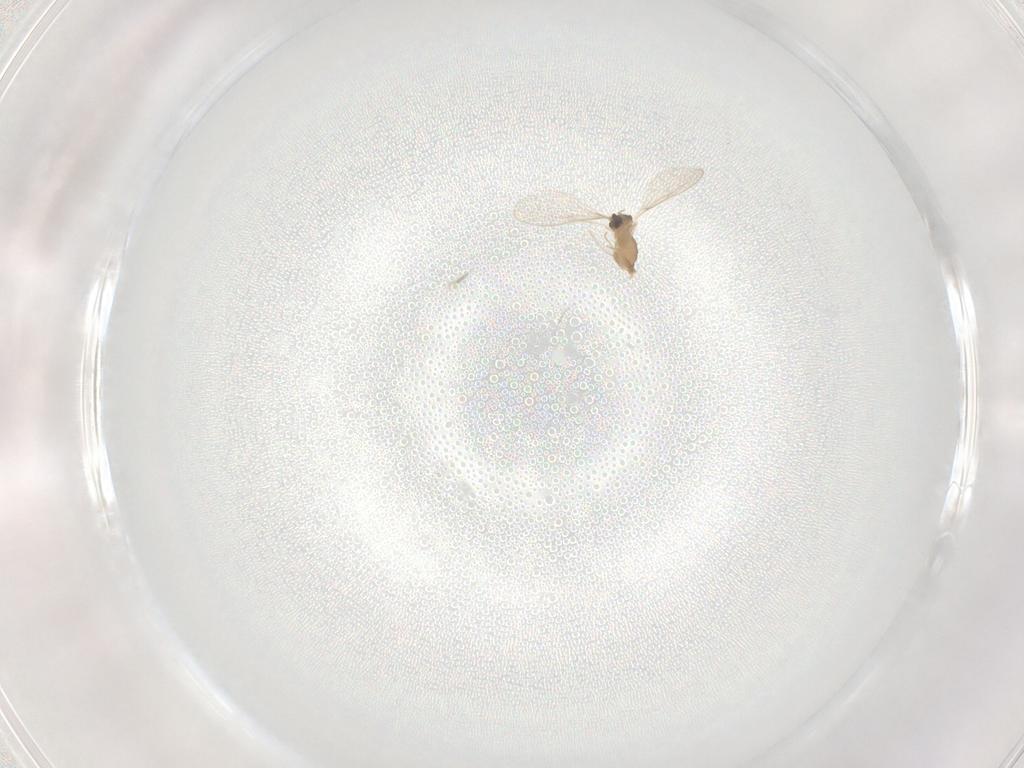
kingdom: Animalia
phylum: Arthropoda
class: Insecta
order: Diptera
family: Cecidomyiidae
